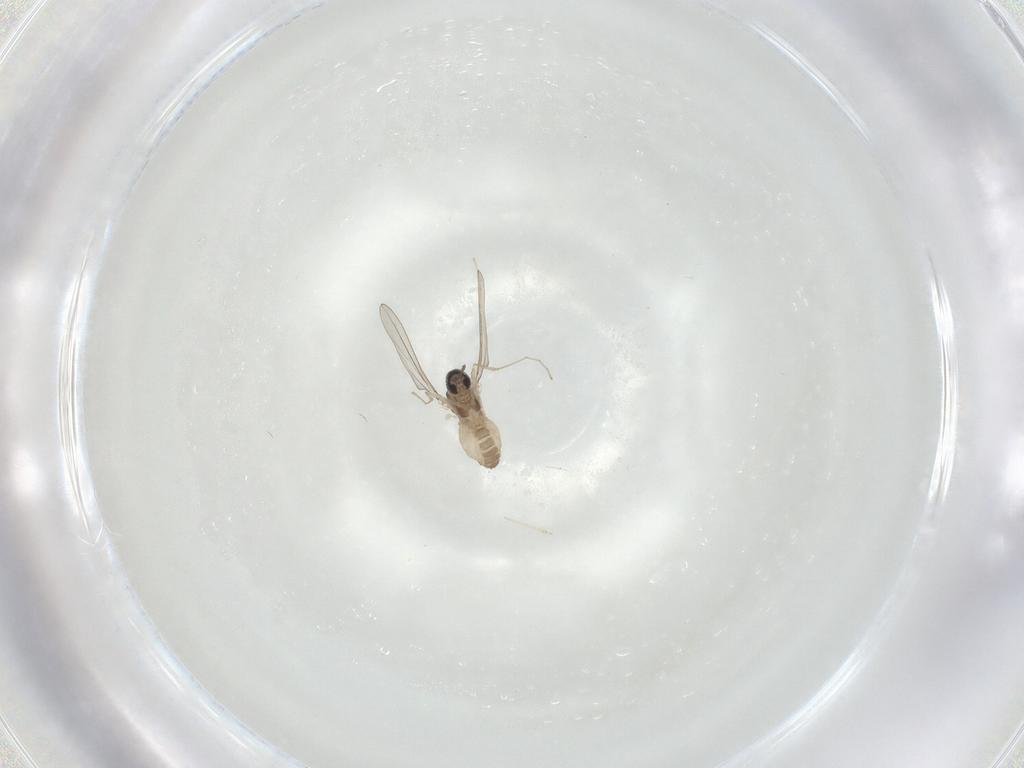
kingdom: Animalia
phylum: Arthropoda
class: Insecta
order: Diptera
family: Cecidomyiidae
